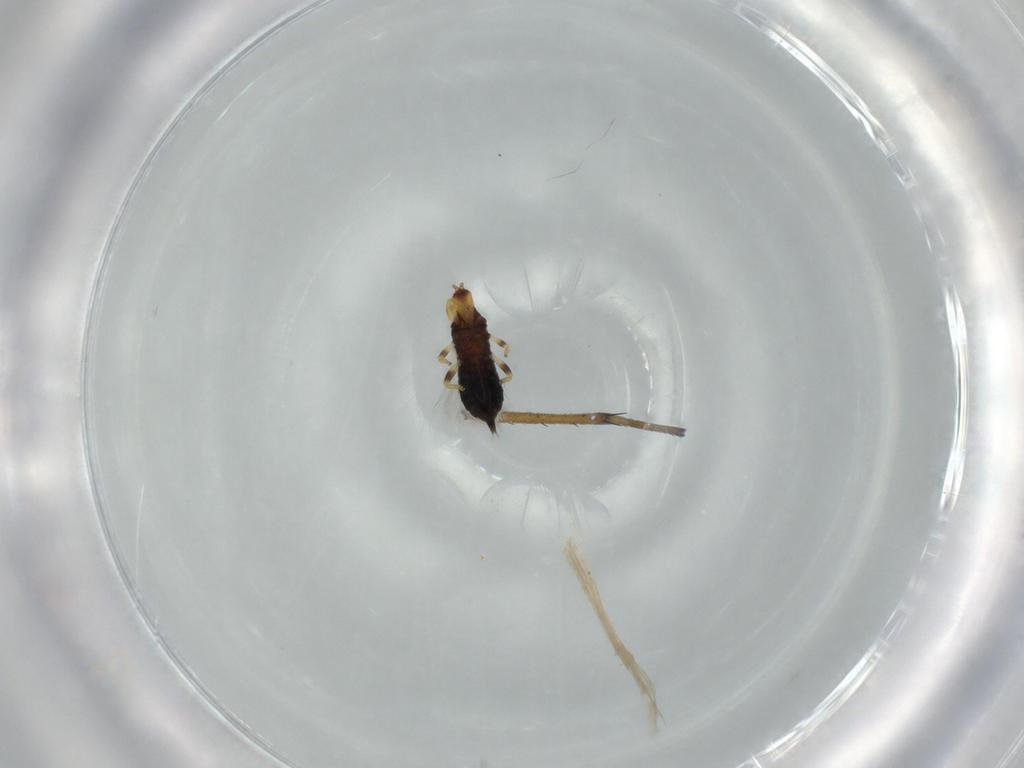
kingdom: Animalia
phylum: Arthropoda
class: Insecta
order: Thysanoptera
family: Phlaeothripidae
